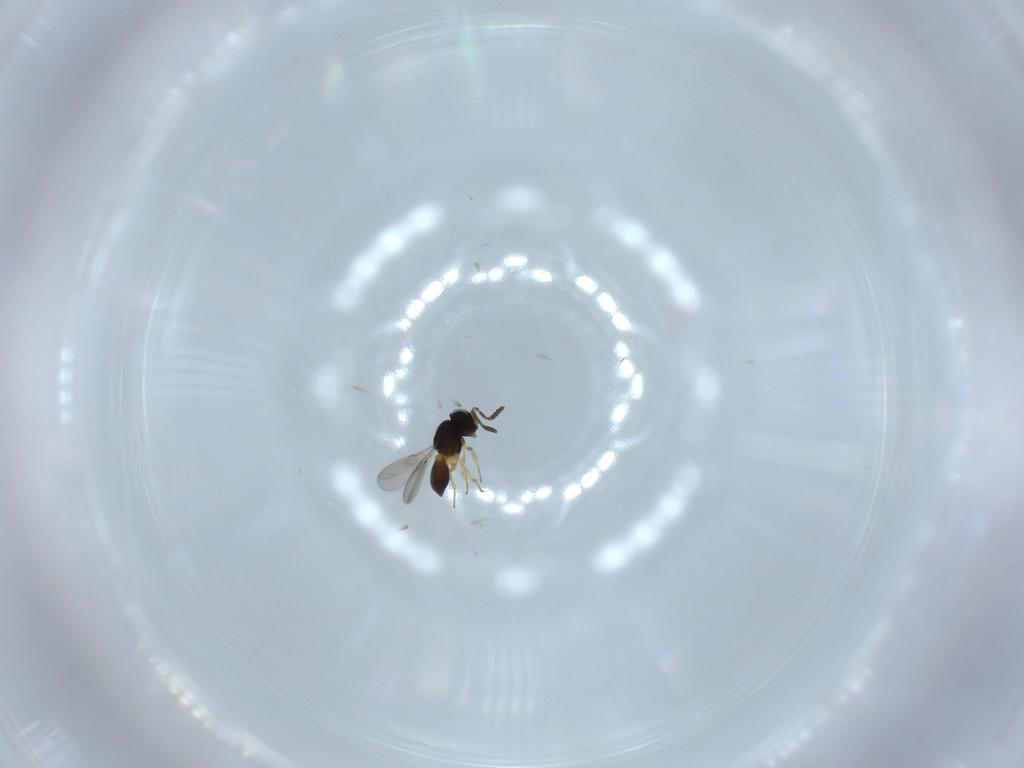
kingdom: Animalia
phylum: Arthropoda
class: Insecta
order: Hymenoptera
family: Scelionidae
